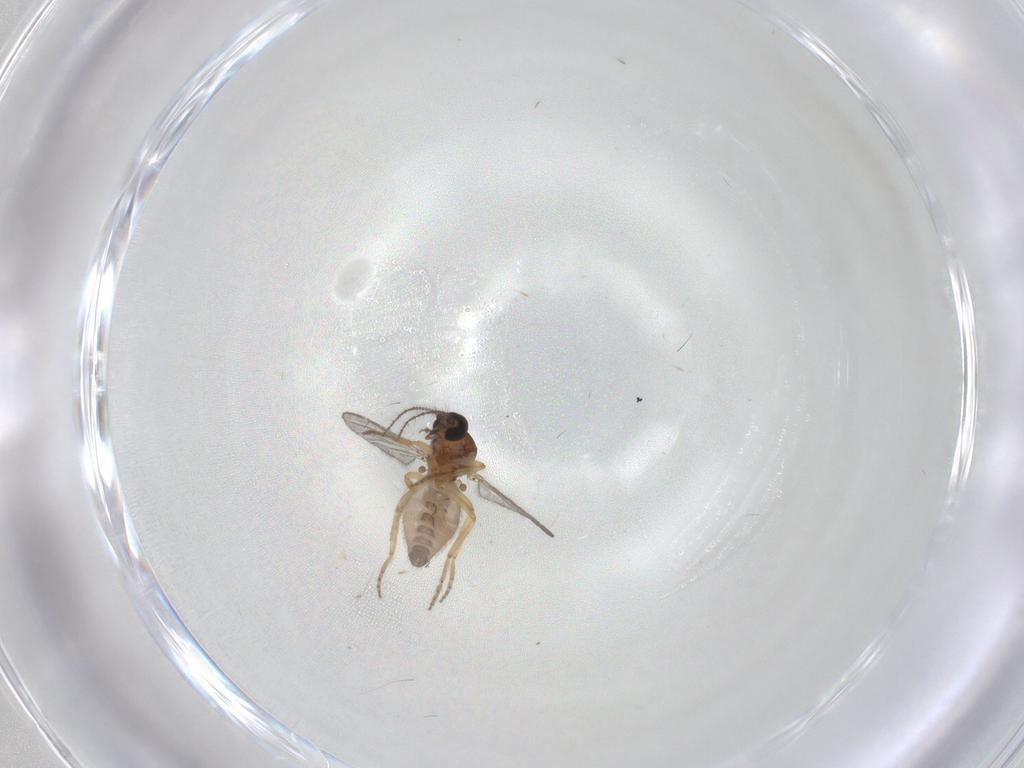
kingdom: Animalia
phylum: Arthropoda
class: Insecta
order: Diptera
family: Ceratopogonidae
